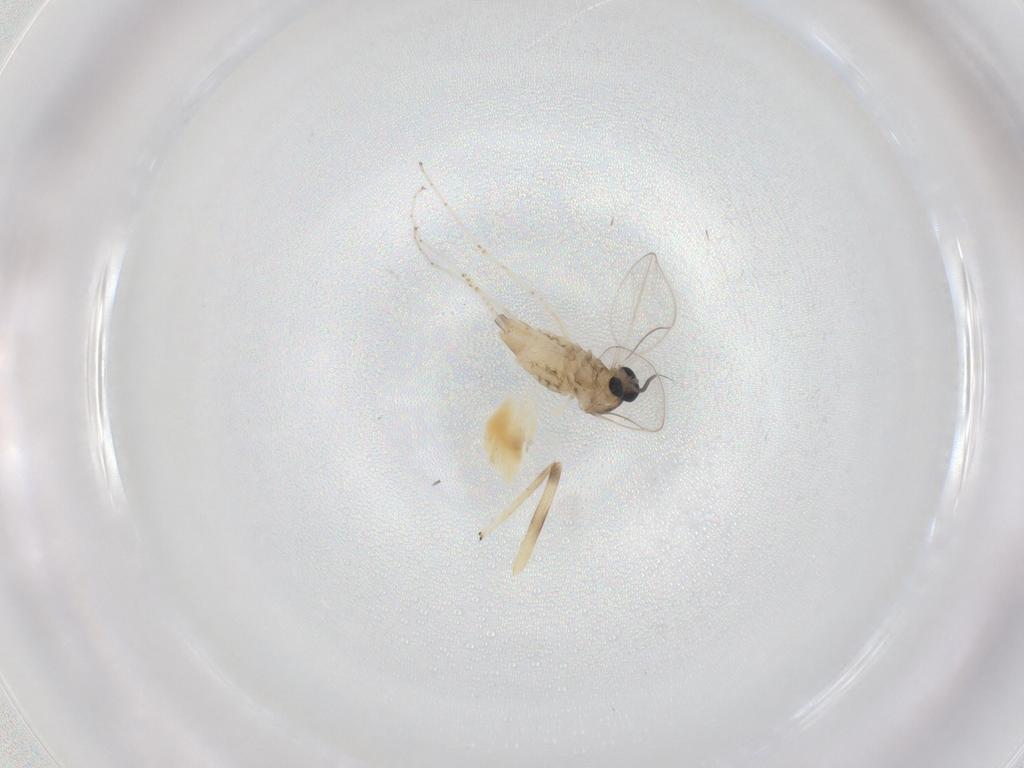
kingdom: Animalia
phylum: Arthropoda
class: Insecta
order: Diptera
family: Cecidomyiidae
